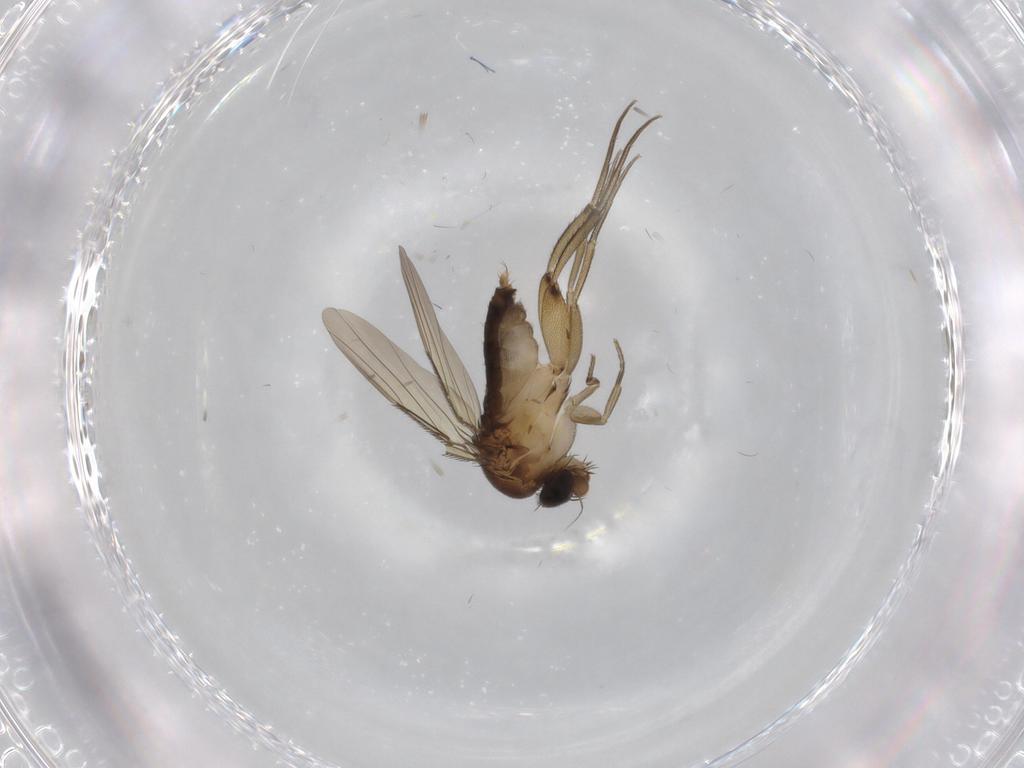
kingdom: Animalia
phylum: Arthropoda
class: Insecta
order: Diptera
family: Phoridae
